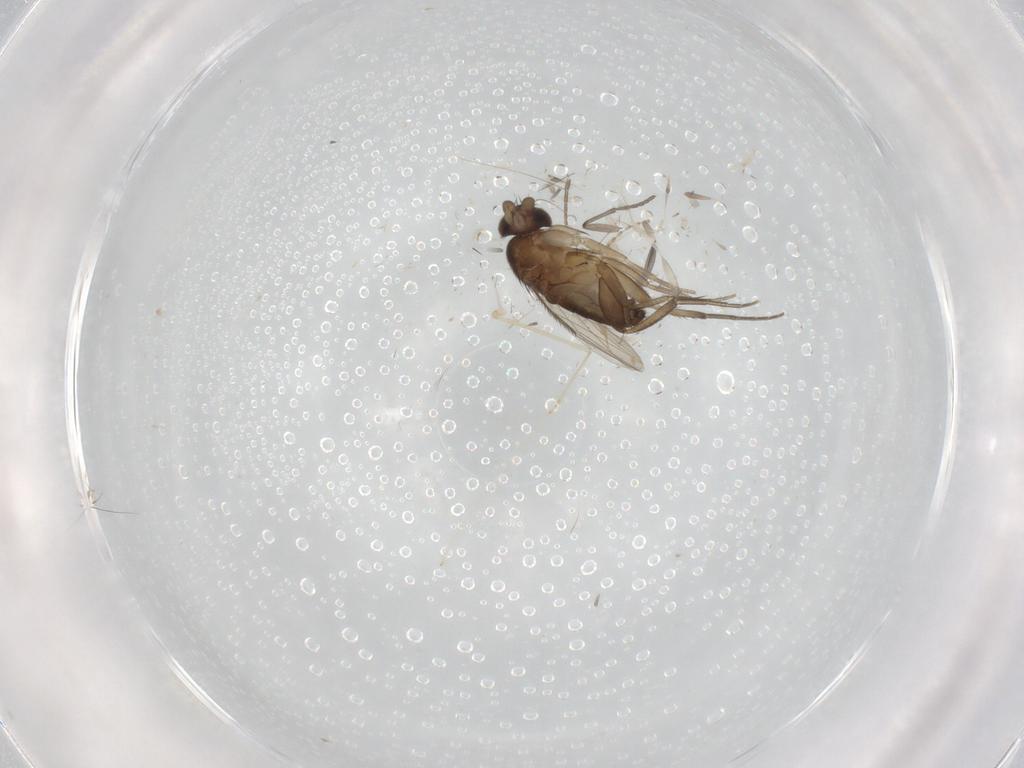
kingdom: Animalia
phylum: Arthropoda
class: Insecta
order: Diptera
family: Phoridae
